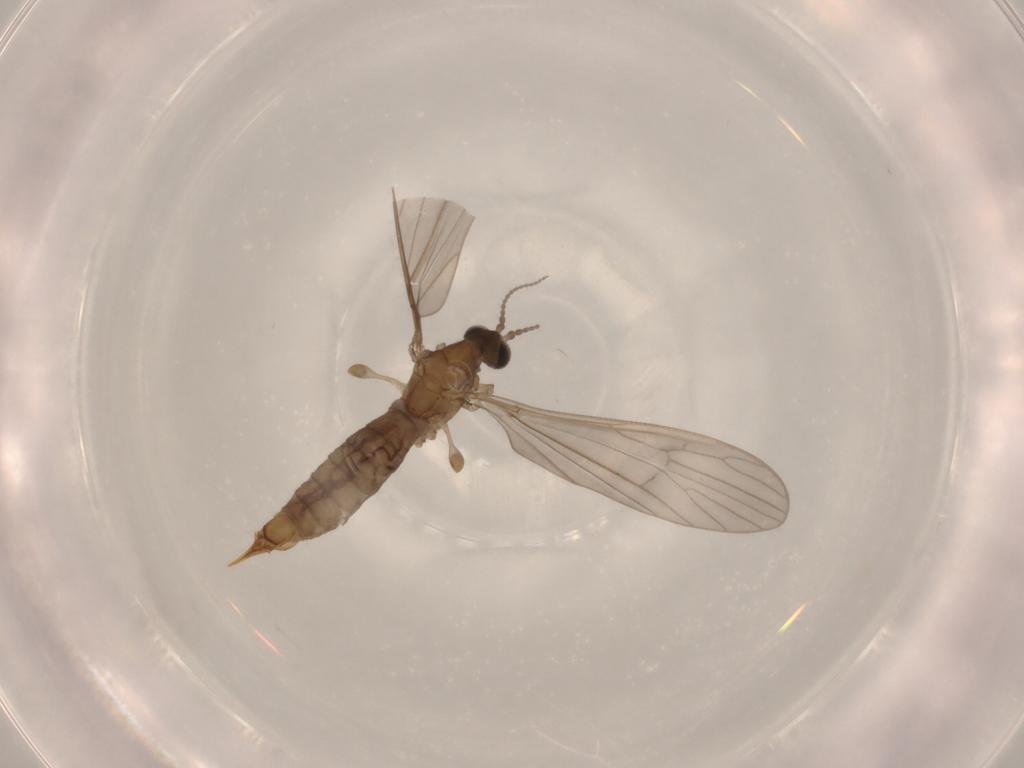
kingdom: Animalia
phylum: Arthropoda
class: Insecta
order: Diptera
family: Limoniidae
